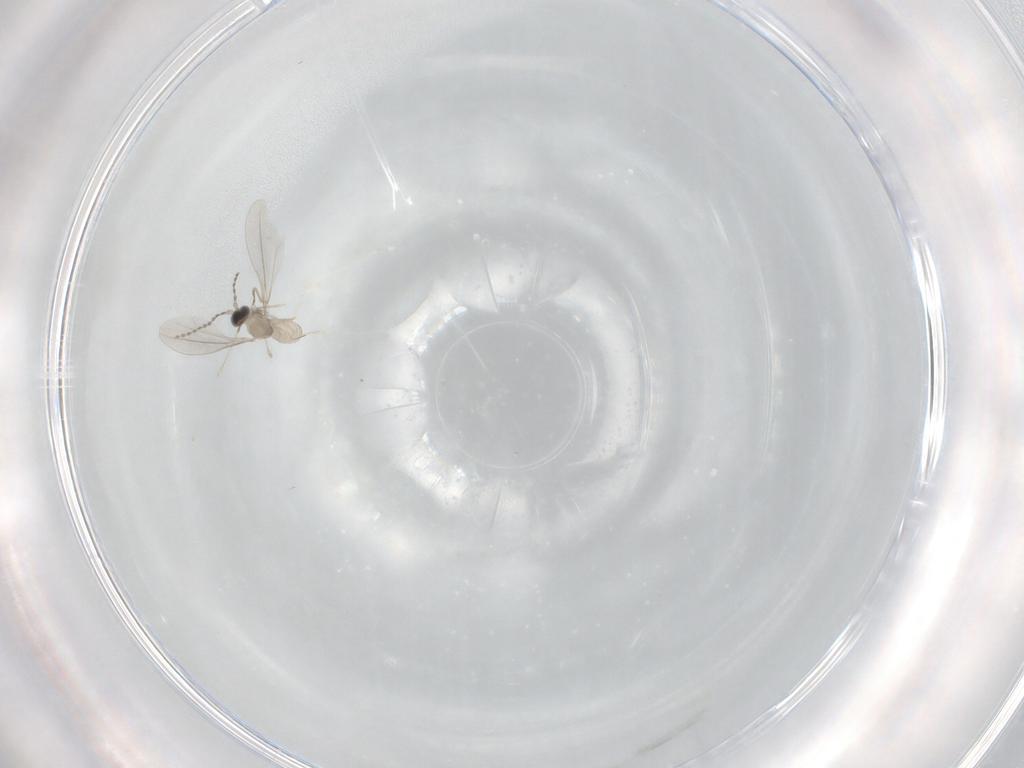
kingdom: Animalia
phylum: Arthropoda
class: Insecta
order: Diptera
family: Cecidomyiidae
